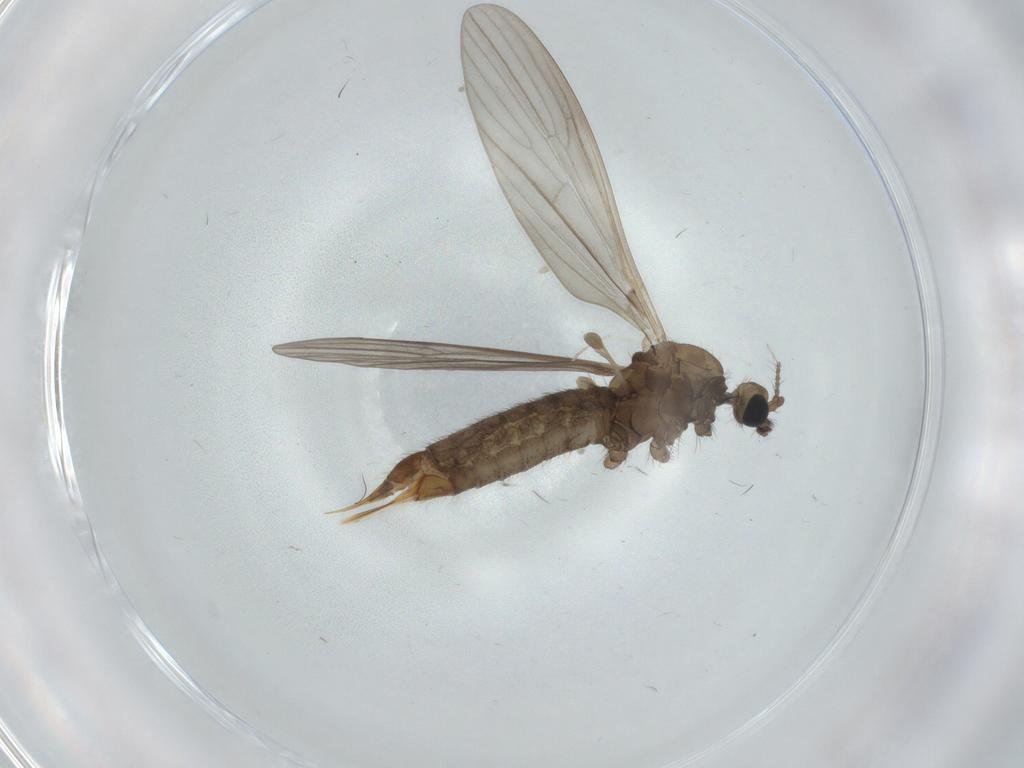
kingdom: Animalia
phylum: Arthropoda
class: Insecta
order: Diptera
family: Limoniidae
